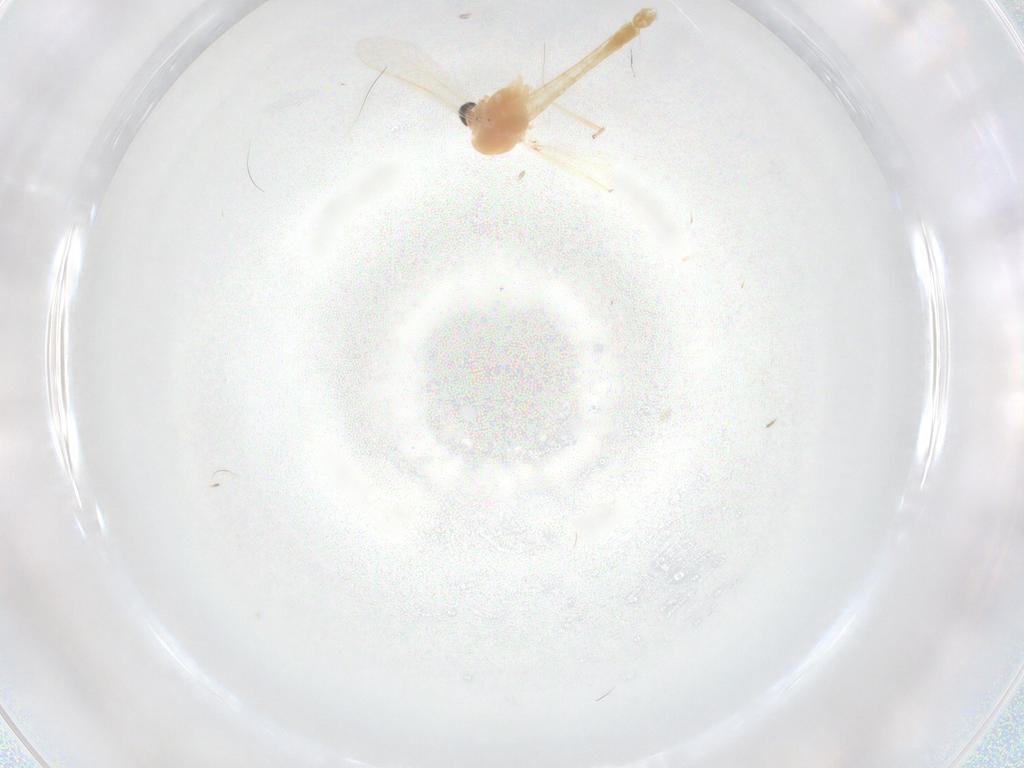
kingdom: Animalia
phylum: Arthropoda
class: Insecta
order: Diptera
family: Chironomidae
